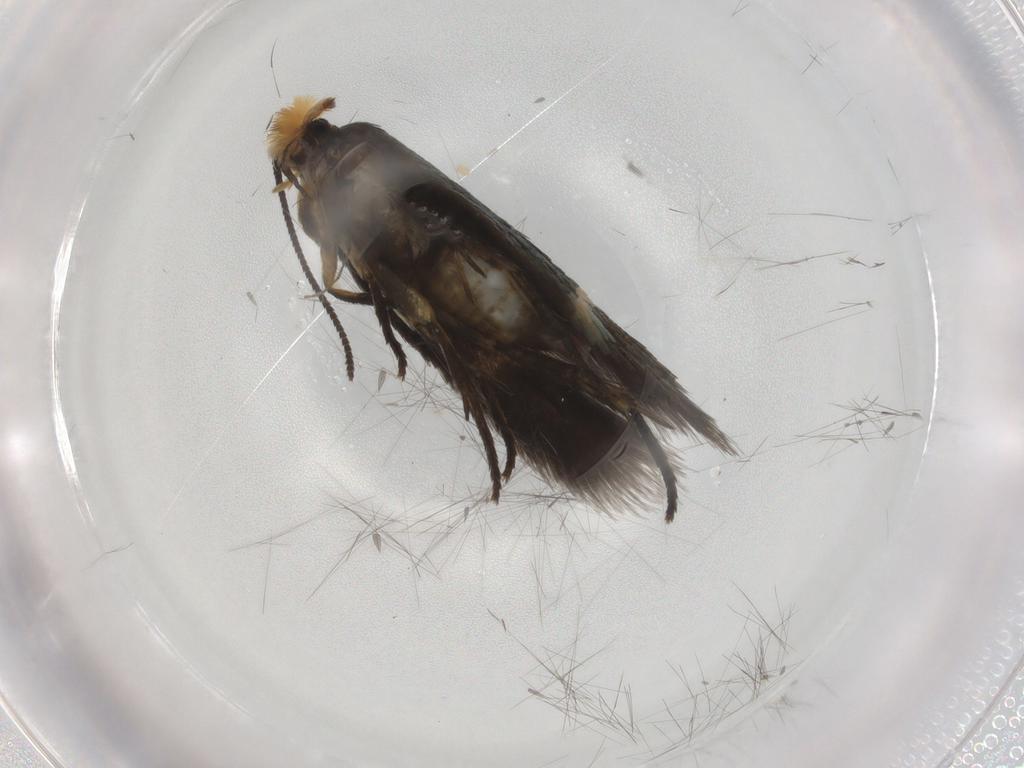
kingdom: Animalia
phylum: Arthropoda
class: Insecta
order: Lepidoptera
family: Nepticulidae
